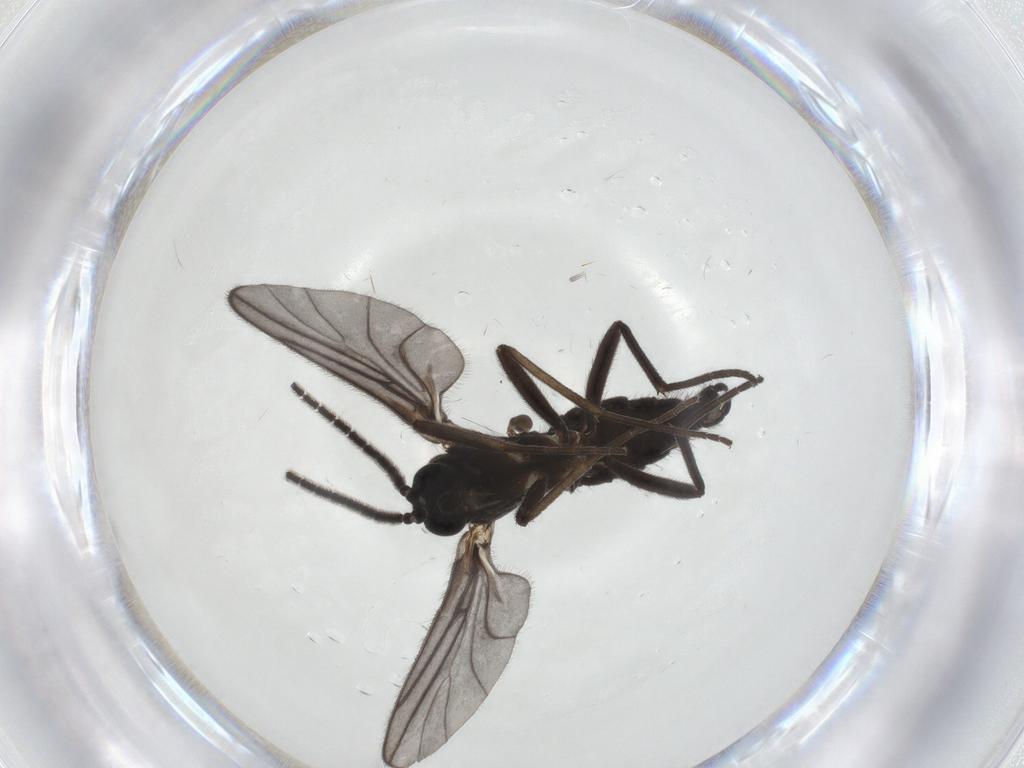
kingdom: Animalia
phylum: Arthropoda
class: Insecta
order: Diptera
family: Sciaridae
